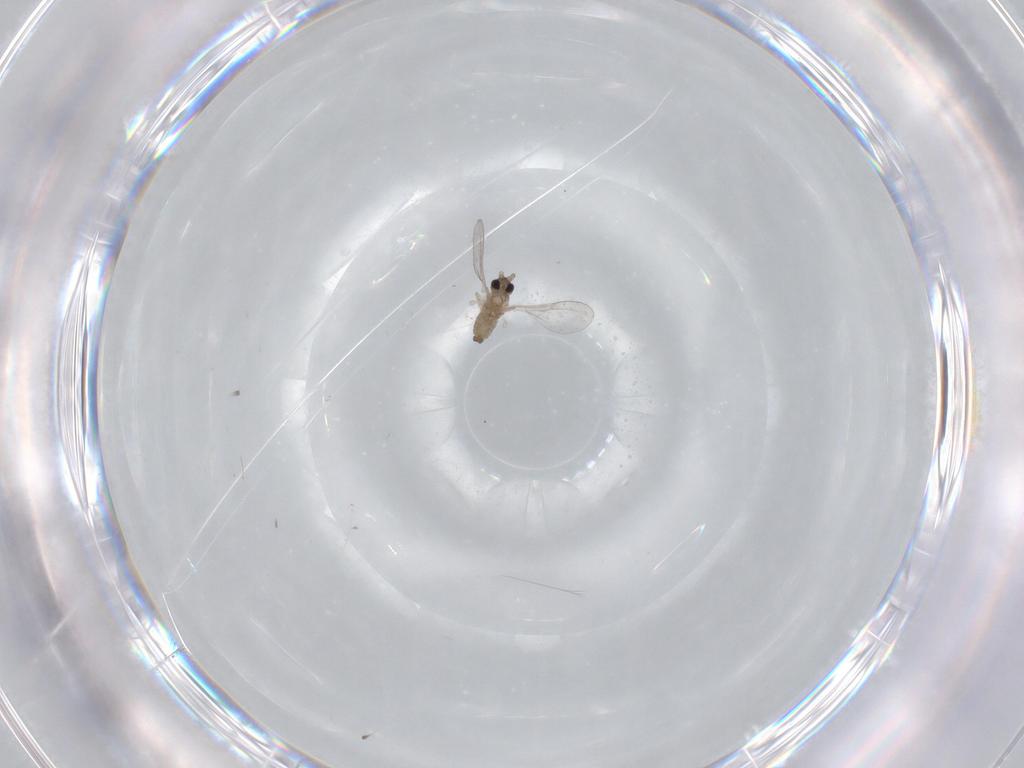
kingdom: Animalia
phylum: Arthropoda
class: Insecta
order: Diptera
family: Cecidomyiidae
